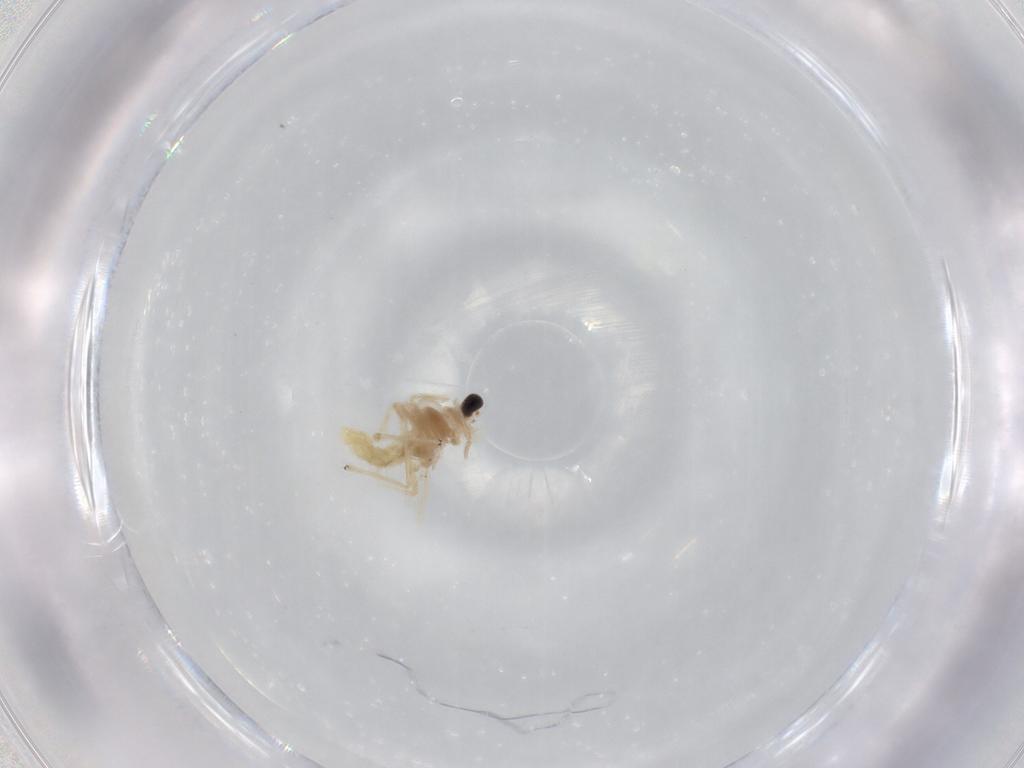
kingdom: Animalia
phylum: Arthropoda
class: Insecta
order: Diptera
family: Chironomidae
